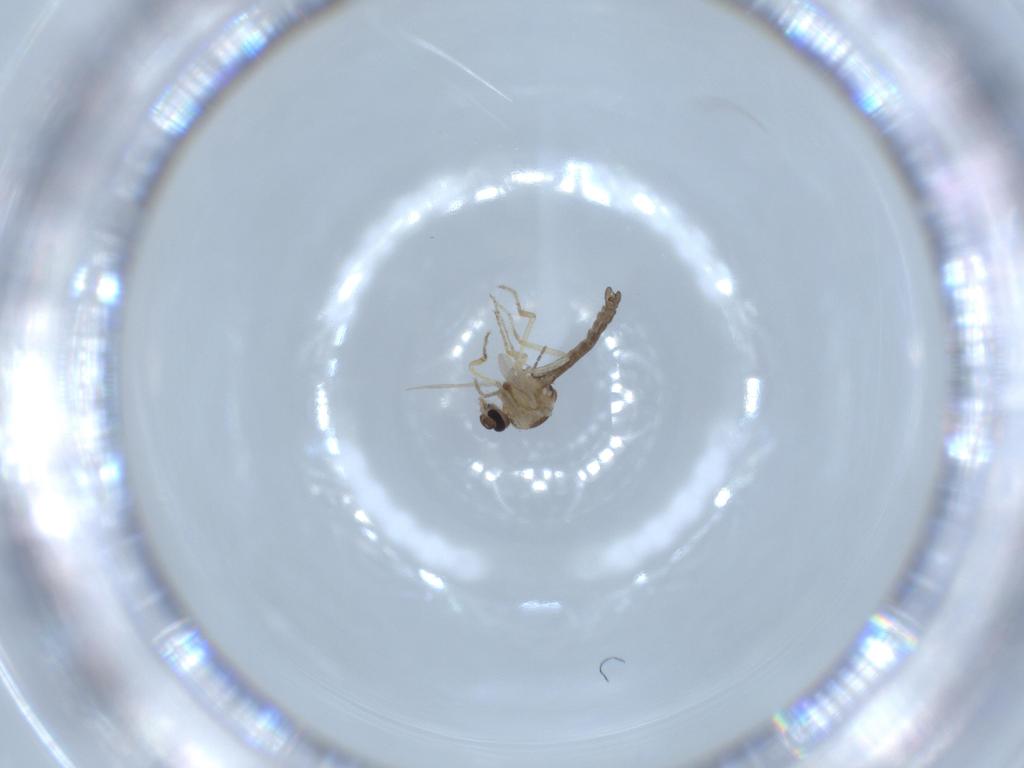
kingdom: Animalia
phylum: Arthropoda
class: Insecta
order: Diptera
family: Ceratopogonidae
